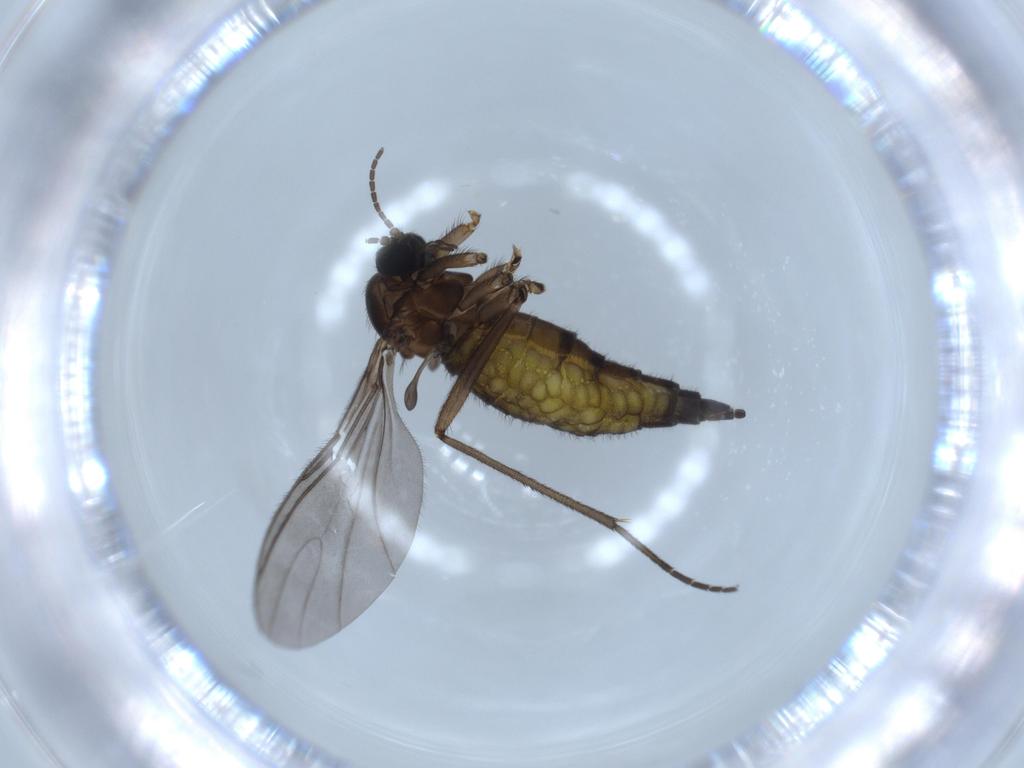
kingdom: Animalia
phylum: Arthropoda
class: Insecta
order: Diptera
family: Sciaridae
